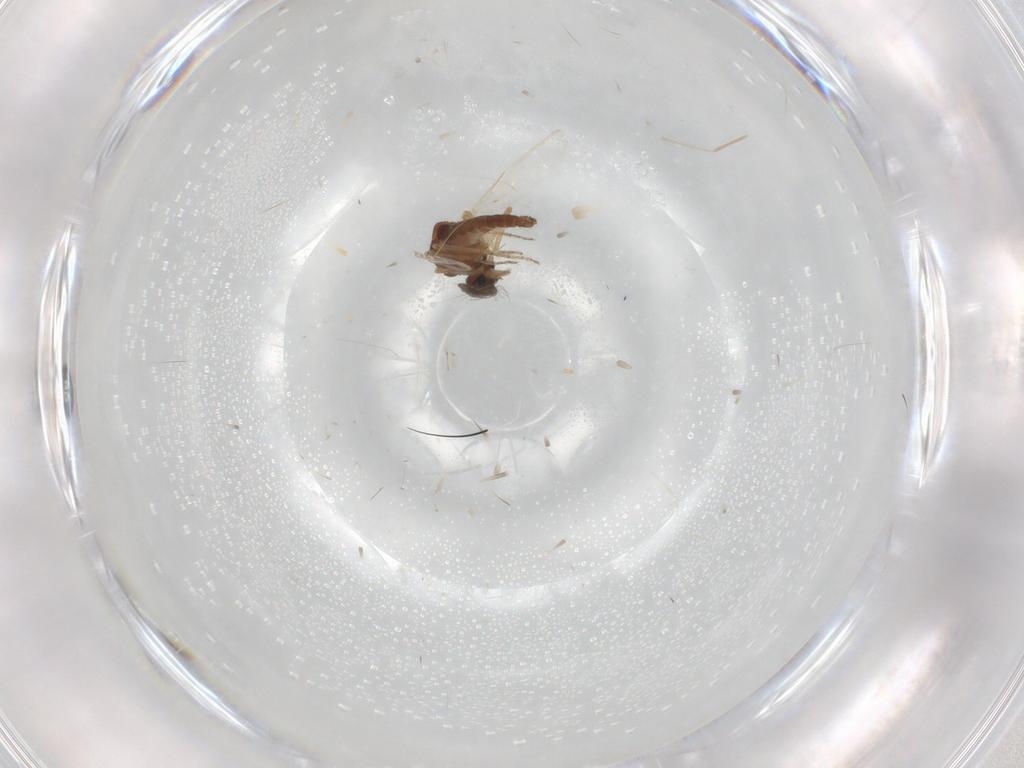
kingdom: Animalia
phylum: Arthropoda
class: Insecta
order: Diptera
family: Ceratopogonidae
